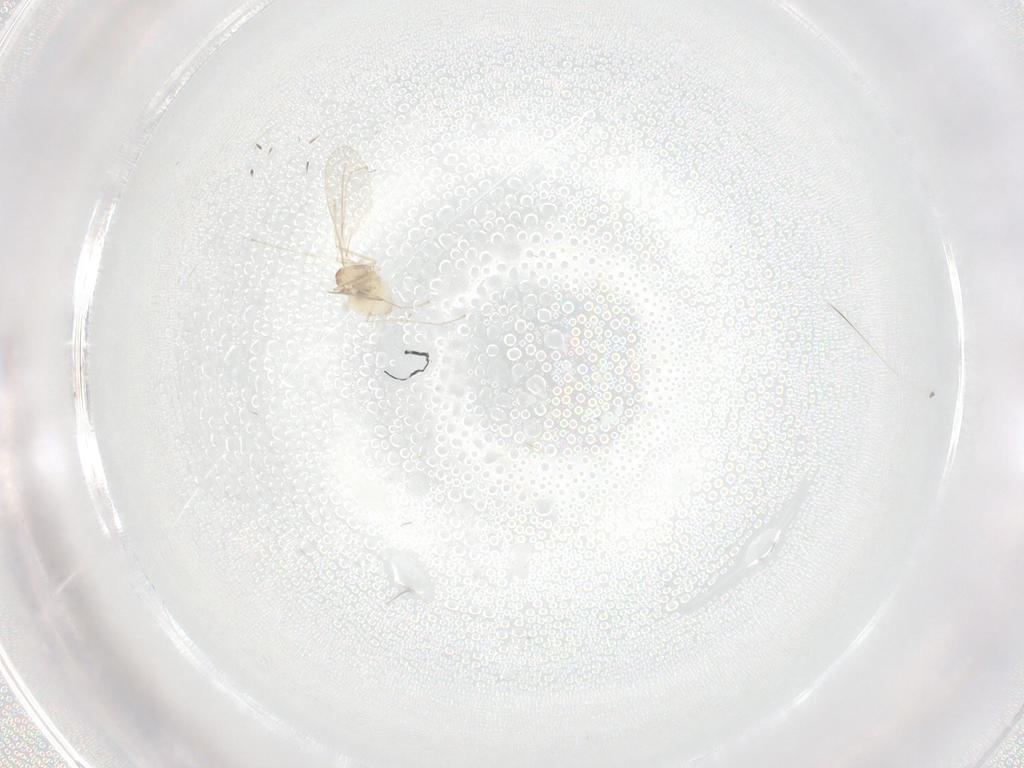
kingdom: Animalia
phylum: Arthropoda
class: Insecta
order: Diptera
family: Cecidomyiidae
